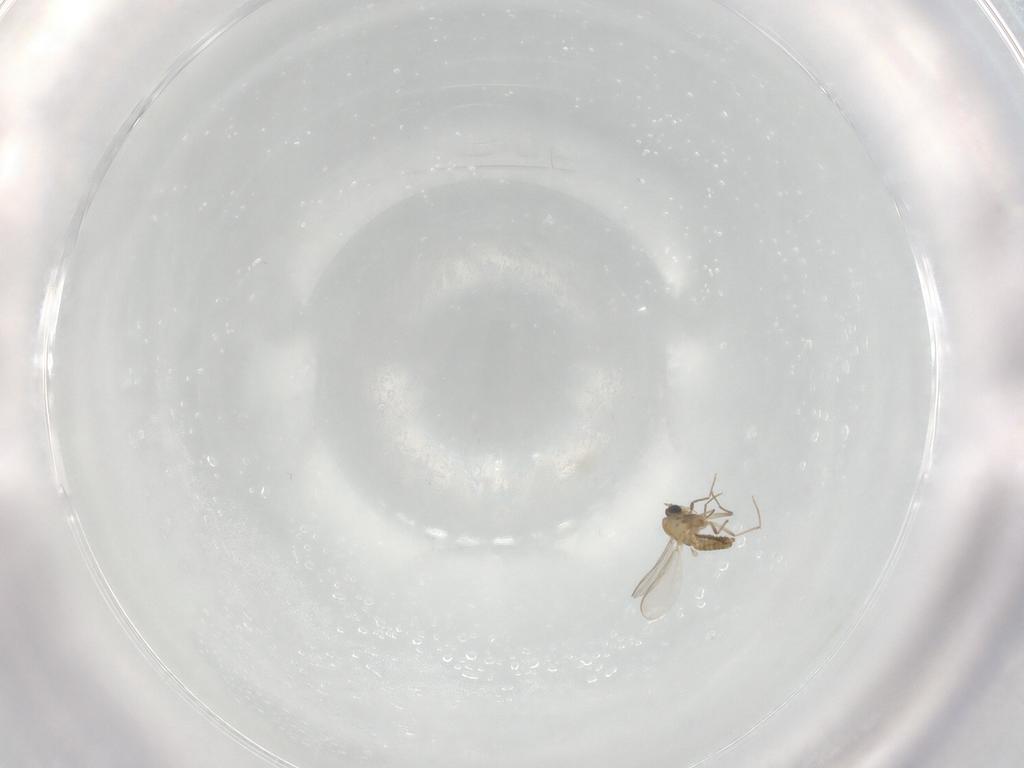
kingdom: Animalia
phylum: Arthropoda
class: Insecta
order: Diptera
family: Chironomidae
